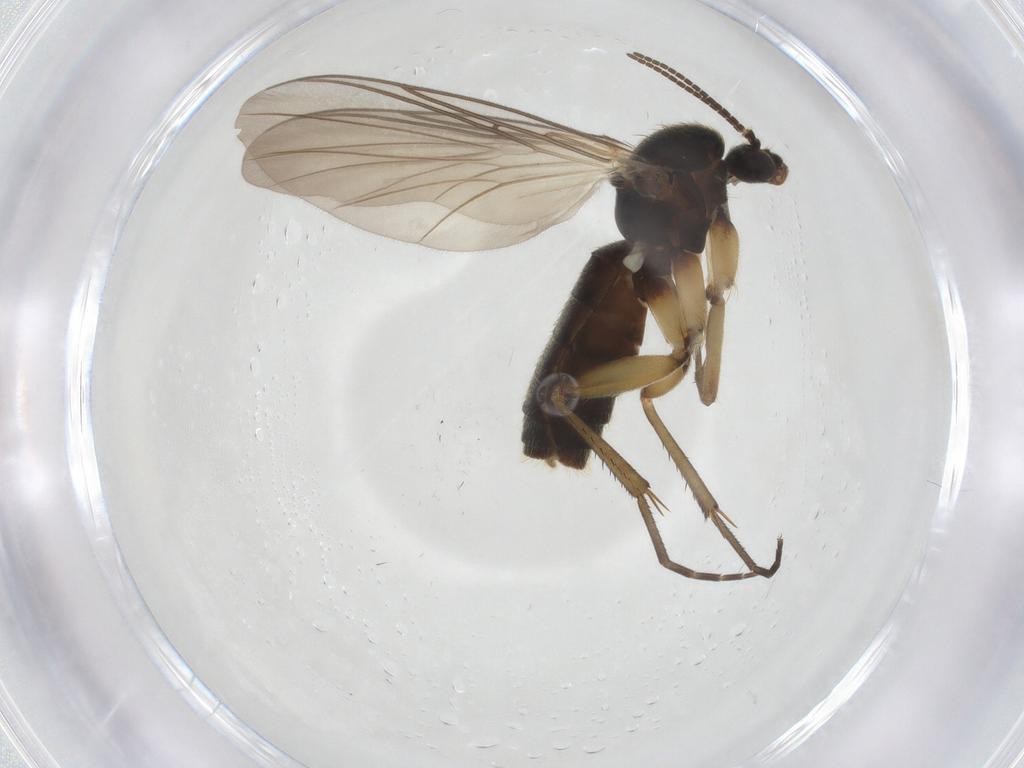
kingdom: Animalia
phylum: Arthropoda
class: Insecta
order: Diptera
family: Mycetophilidae
